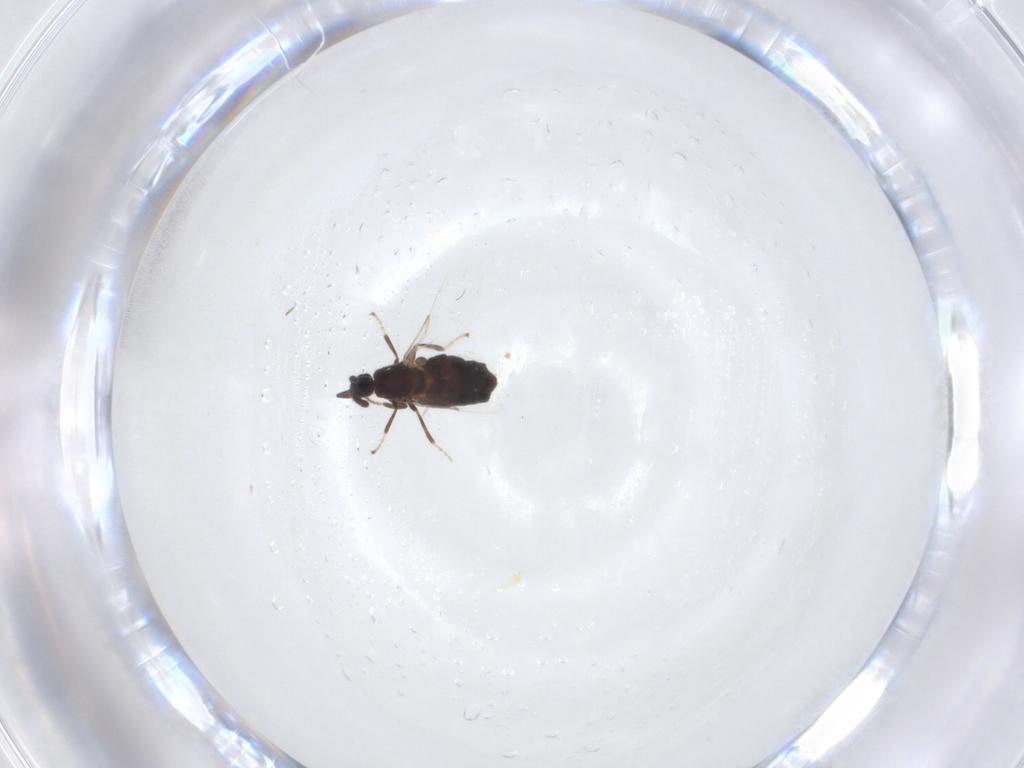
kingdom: Animalia
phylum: Arthropoda
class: Insecta
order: Diptera
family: Scatopsidae
